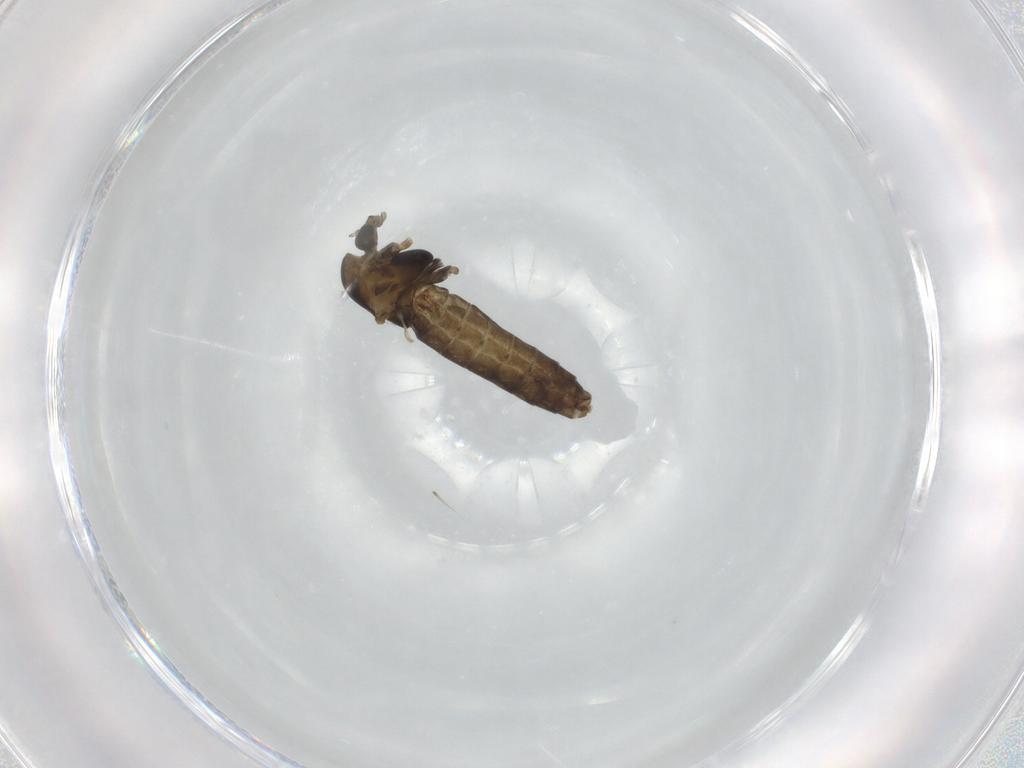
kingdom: Animalia
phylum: Arthropoda
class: Insecta
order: Diptera
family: Chironomidae
